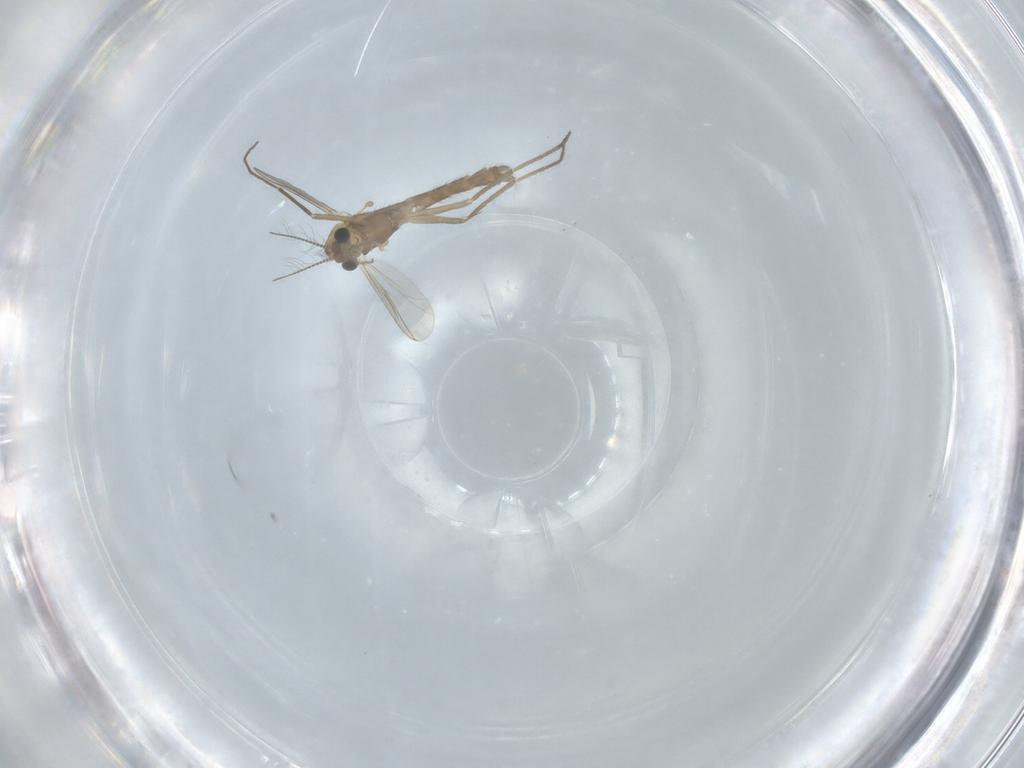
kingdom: Animalia
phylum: Arthropoda
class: Insecta
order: Diptera
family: Chironomidae
